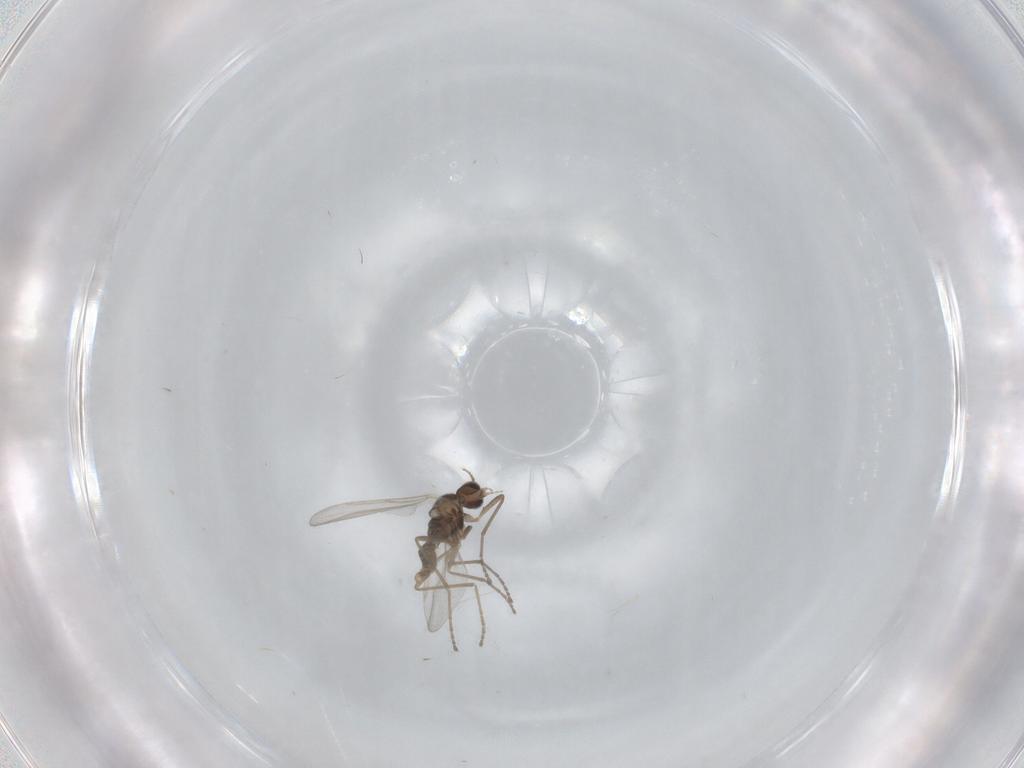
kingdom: Animalia
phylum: Arthropoda
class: Insecta
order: Diptera
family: Cecidomyiidae
